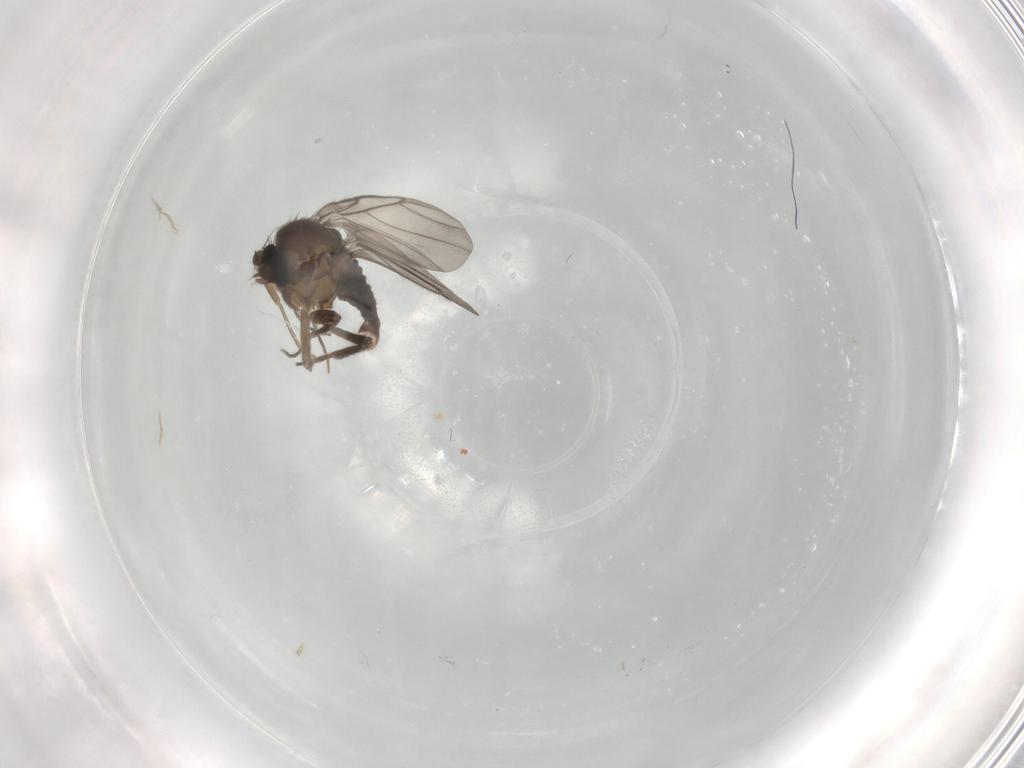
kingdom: Animalia
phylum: Arthropoda
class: Insecta
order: Diptera
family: Phoridae
